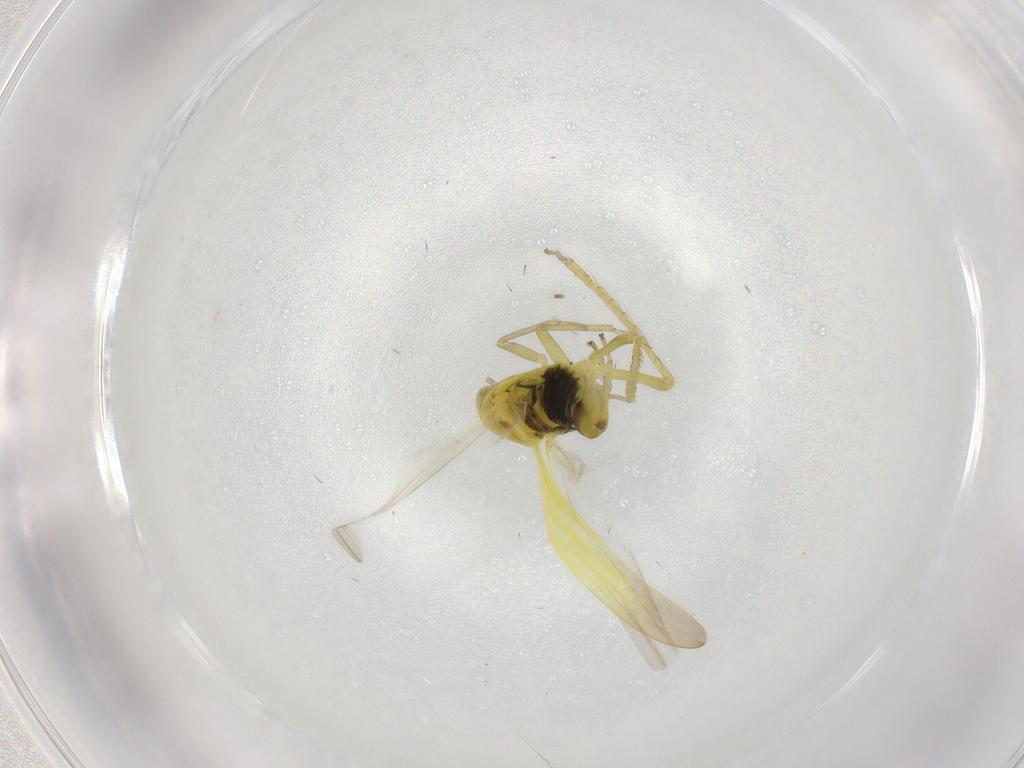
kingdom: Animalia
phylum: Arthropoda
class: Insecta
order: Hemiptera
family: Cicadellidae
